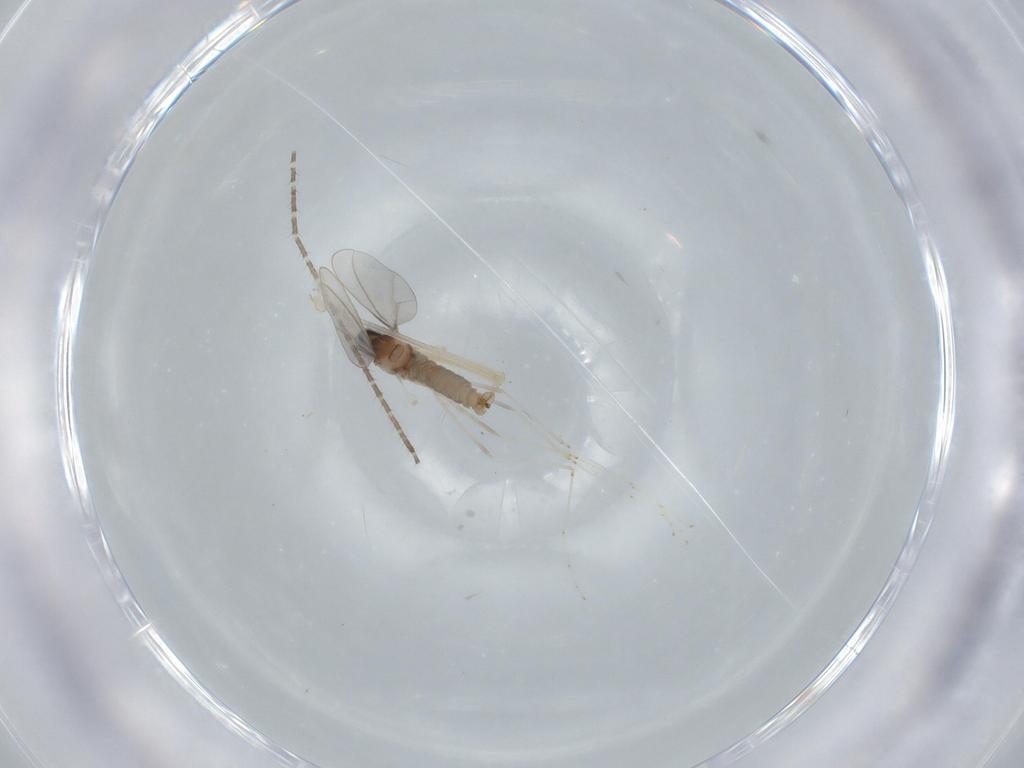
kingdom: Animalia
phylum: Arthropoda
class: Insecta
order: Diptera
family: Cecidomyiidae
